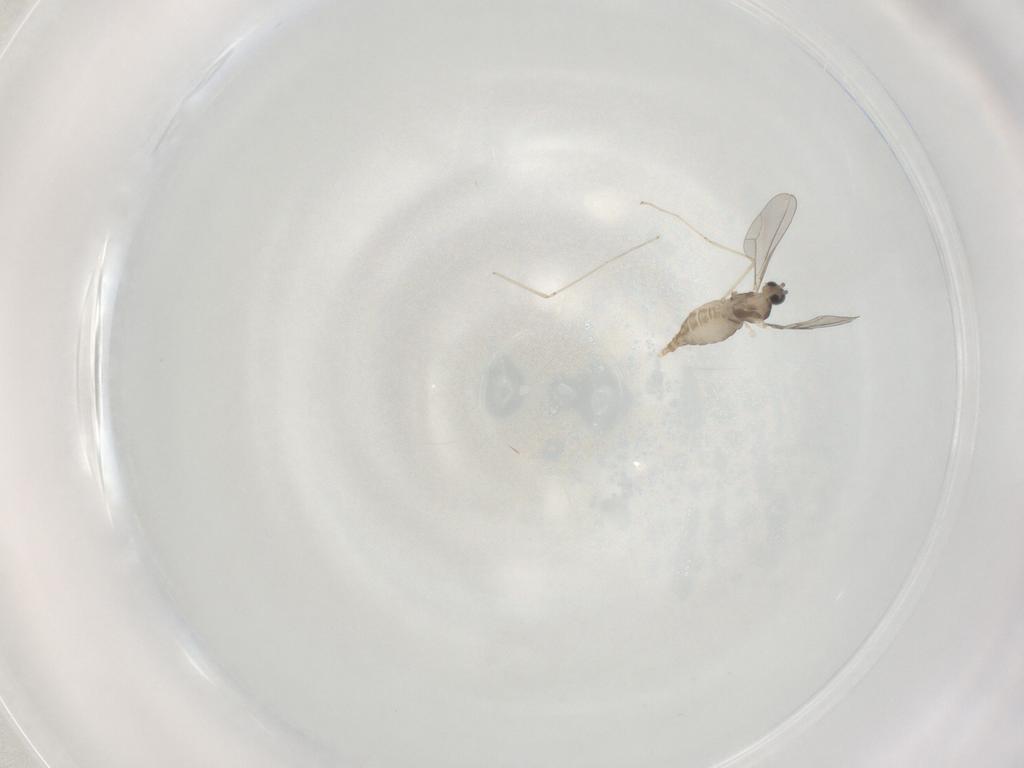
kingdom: Animalia
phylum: Arthropoda
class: Insecta
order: Diptera
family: Cecidomyiidae
